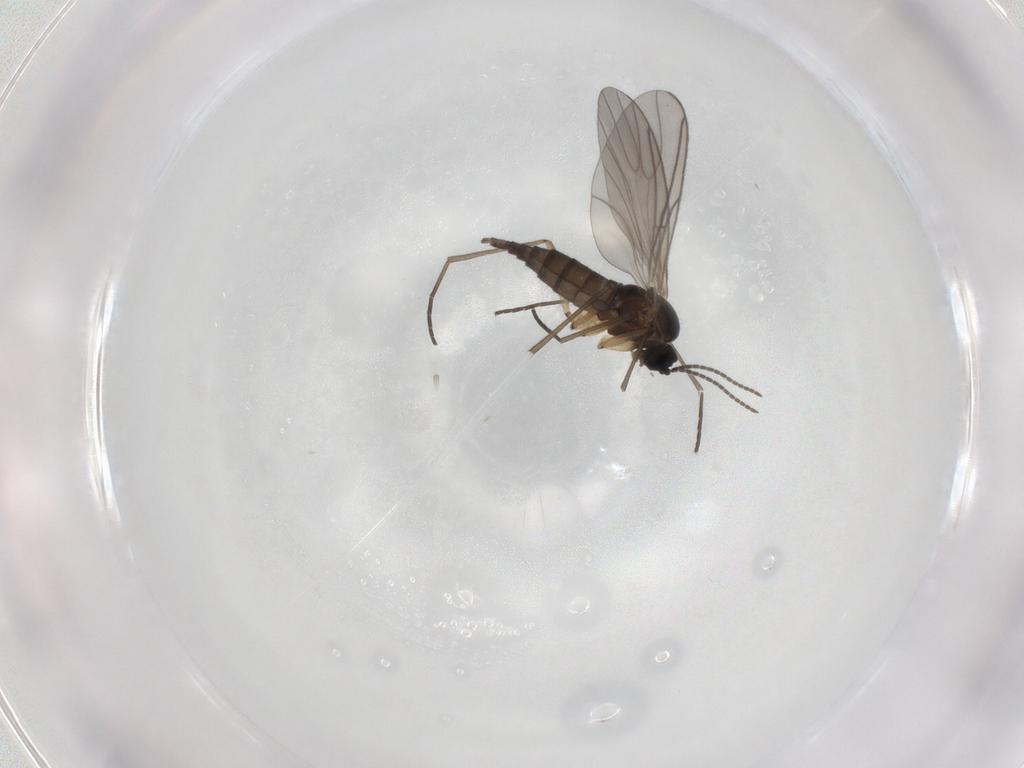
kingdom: Animalia
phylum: Arthropoda
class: Insecta
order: Diptera
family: Sciaridae
